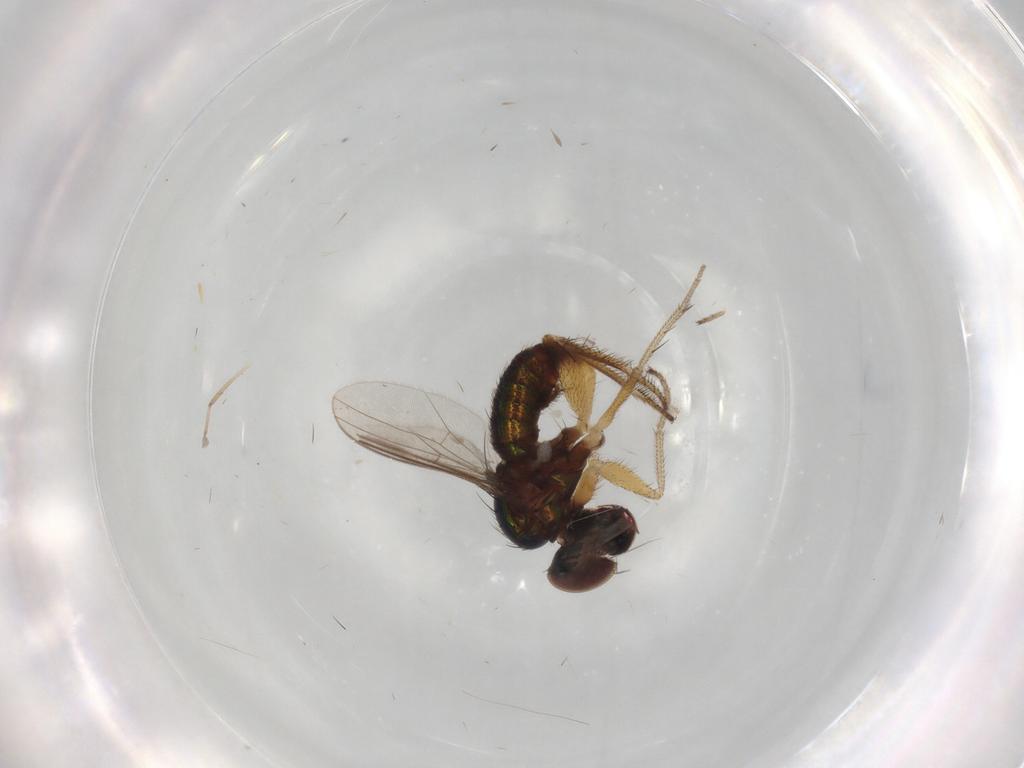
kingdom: Animalia
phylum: Arthropoda
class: Insecta
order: Diptera
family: Dolichopodidae
